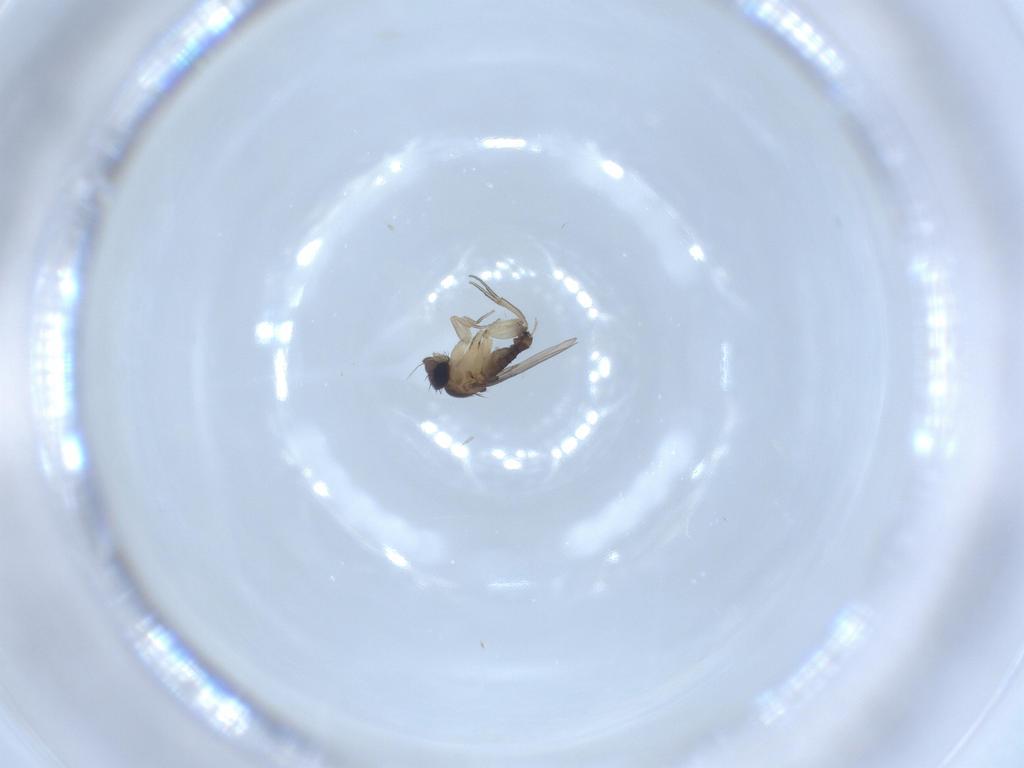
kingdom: Animalia
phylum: Arthropoda
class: Insecta
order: Diptera
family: Phoridae
